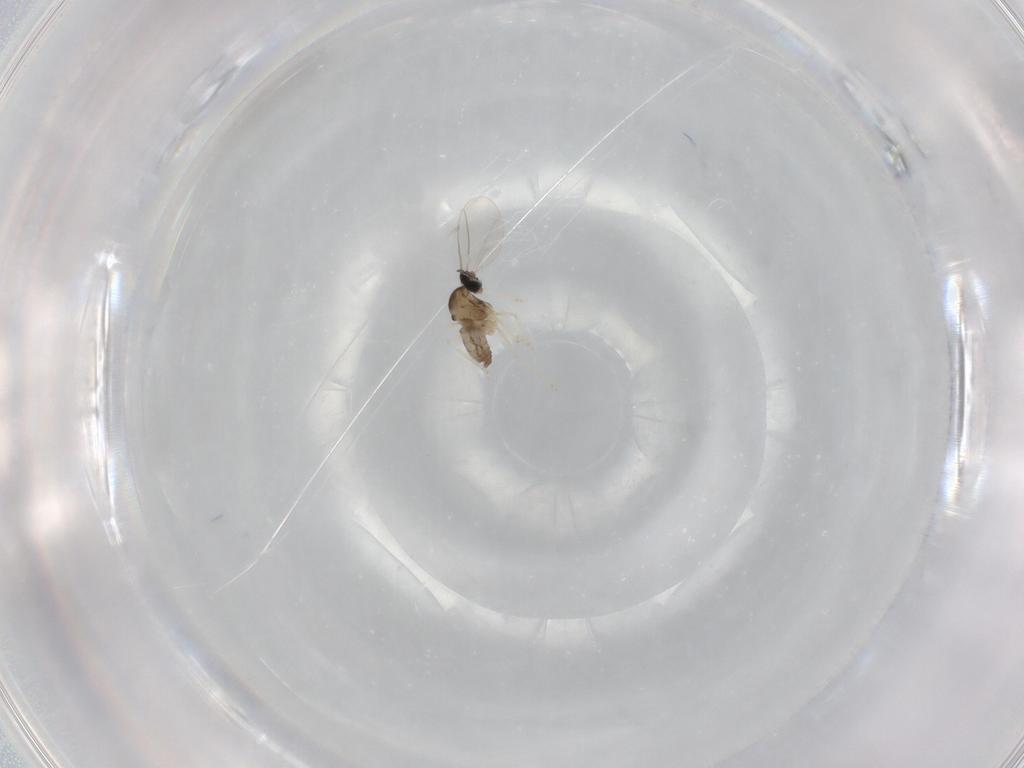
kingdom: Animalia
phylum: Arthropoda
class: Insecta
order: Diptera
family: Cecidomyiidae
